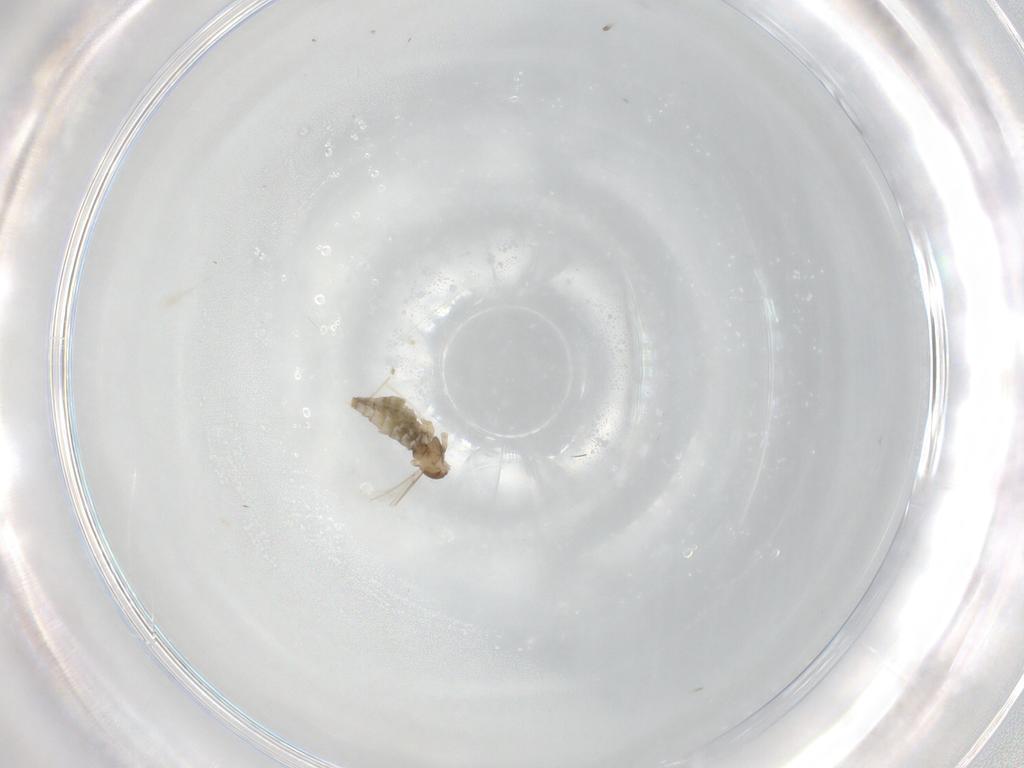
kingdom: Animalia
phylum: Arthropoda
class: Insecta
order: Diptera
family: Cecidomyiidae
